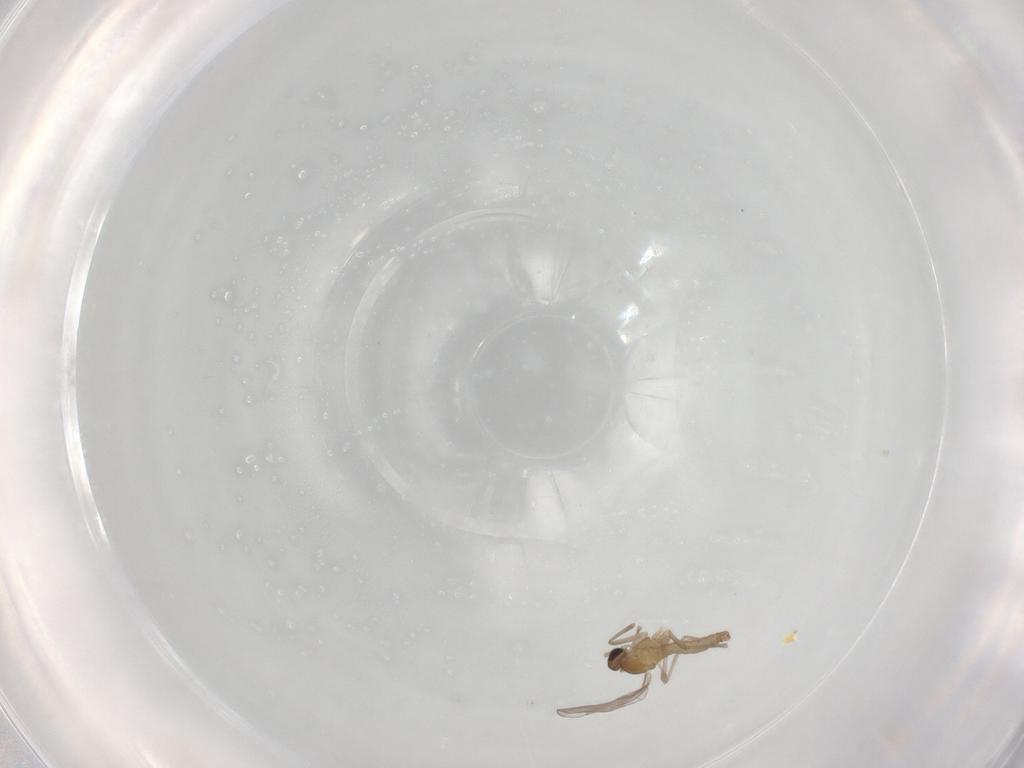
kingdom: Animalia
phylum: Arthropoda
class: Insecta
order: Diptera
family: Cecidomyiidae
